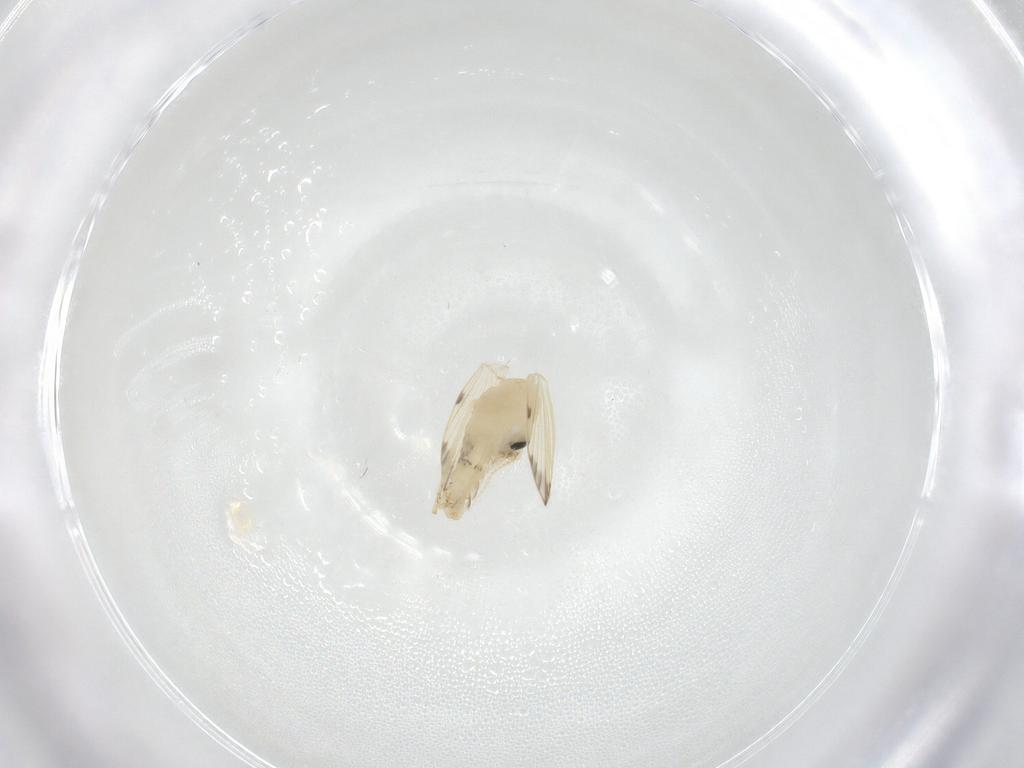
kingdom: Animalia
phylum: Arthropoda
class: Insecta
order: Diptera
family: Psychodidae
